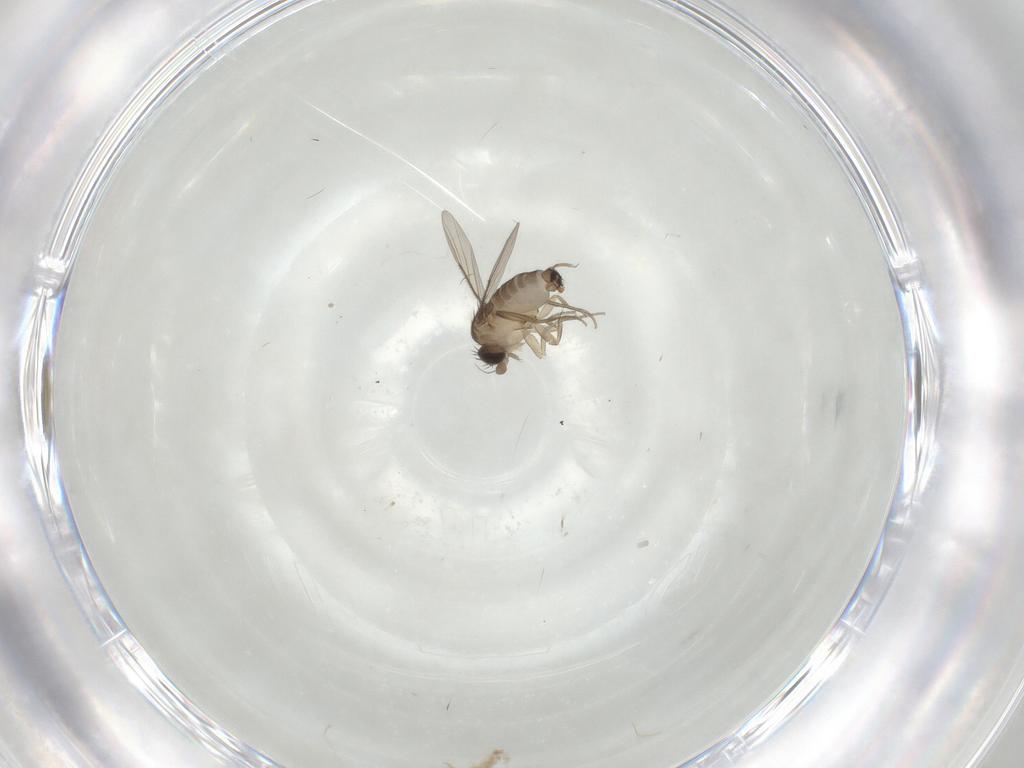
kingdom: Animalia
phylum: Arthropoda
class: Insecta
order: Diptera
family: Phoridae
